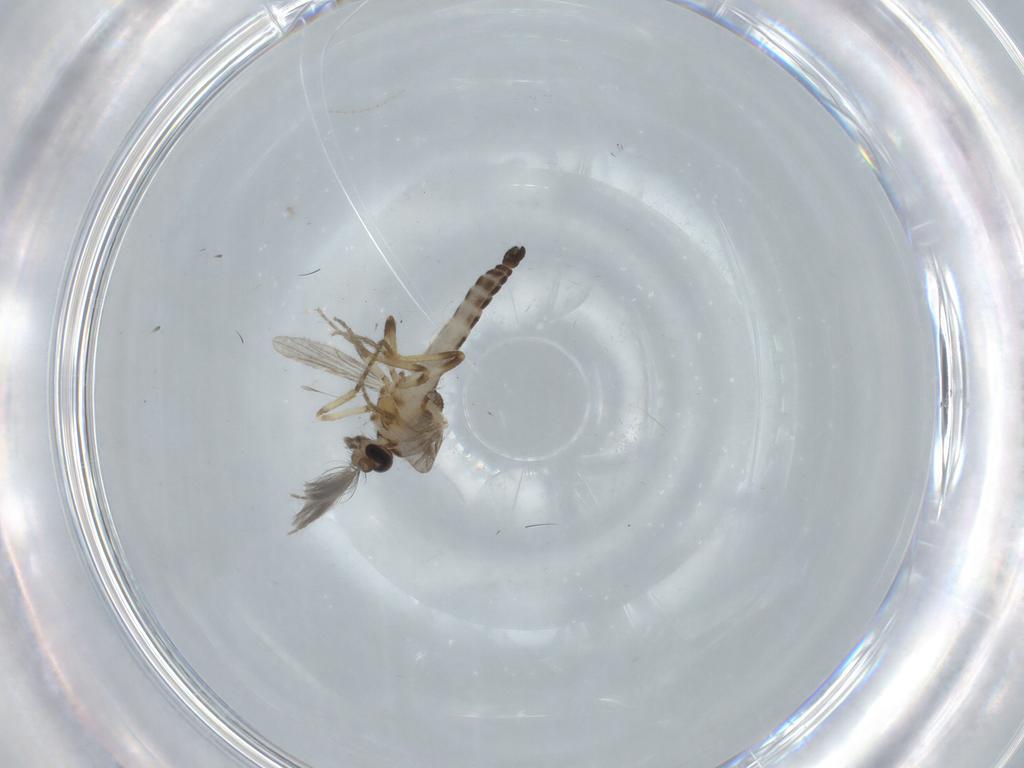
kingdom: Animalia
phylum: Arthropoda
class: Insecta
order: Diptera
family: Ceratopogonidae
